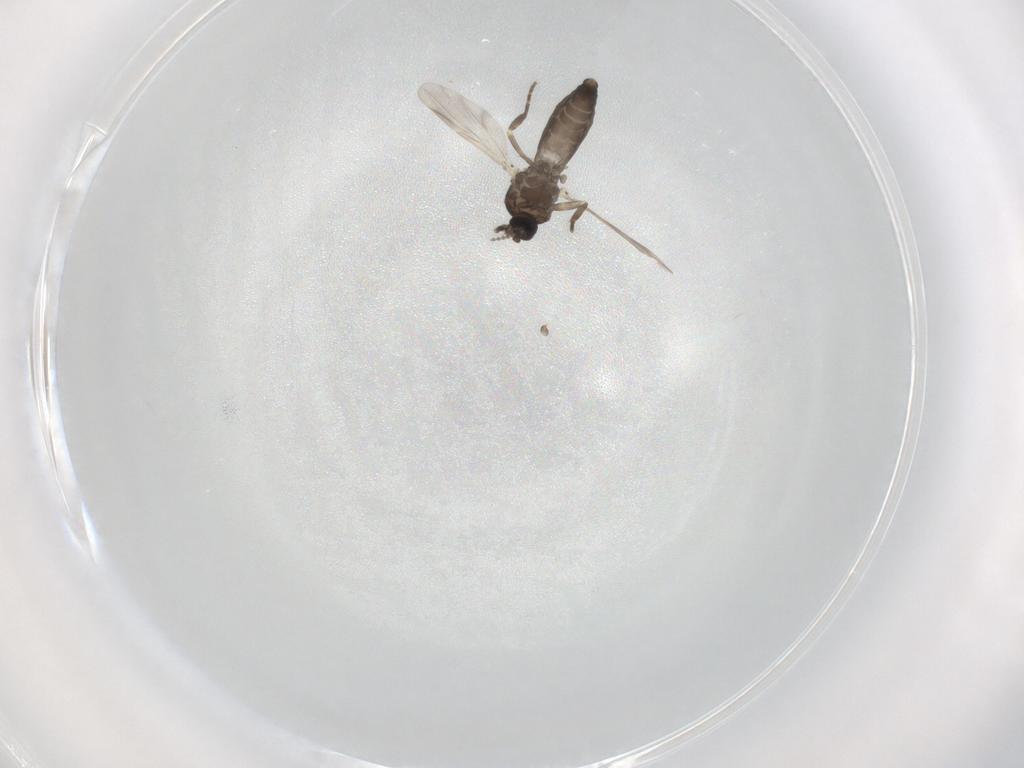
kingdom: Animalia
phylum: Arthropoda
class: Insecta
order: Diptera
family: Ceratopogonidae
